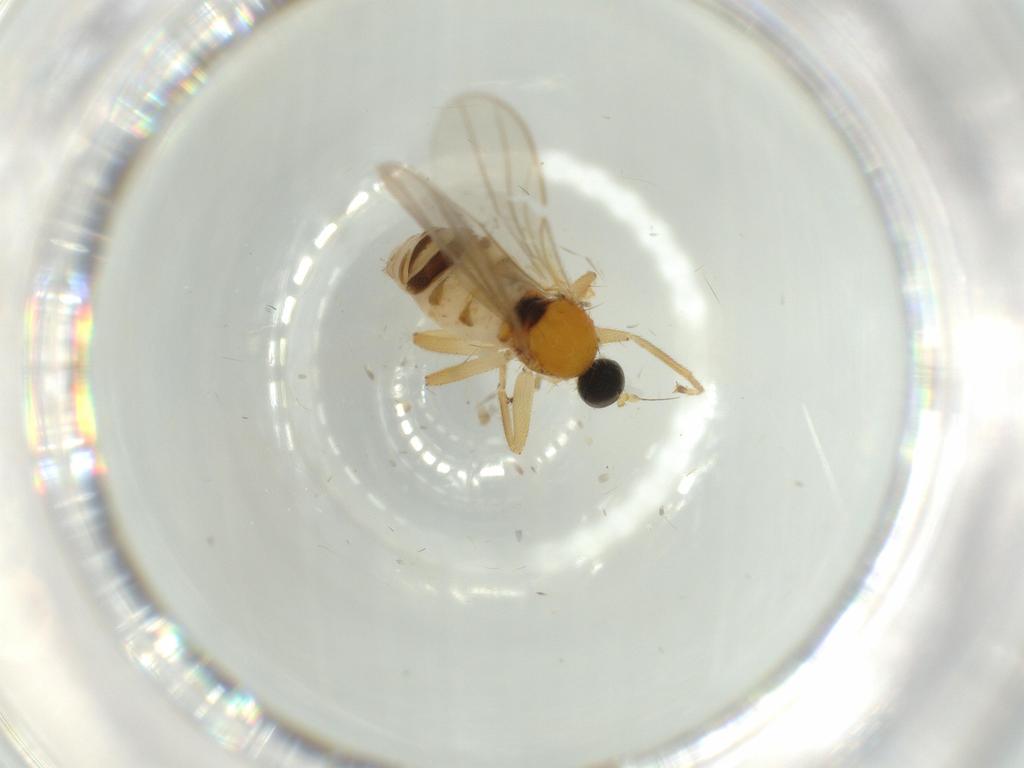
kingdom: Animalia
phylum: Arthropoda
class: Insecta
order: Diptera
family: Hybotidae
